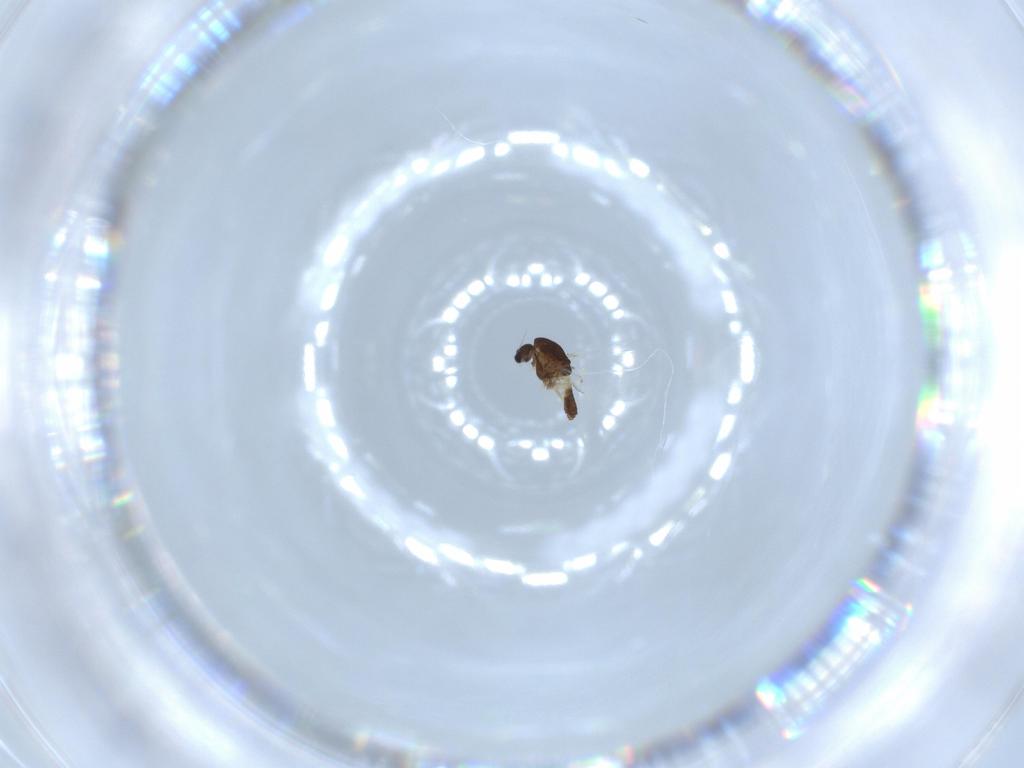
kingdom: Animalia
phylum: Arthropoda
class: Insecta
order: Diptera
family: Chironomidae
